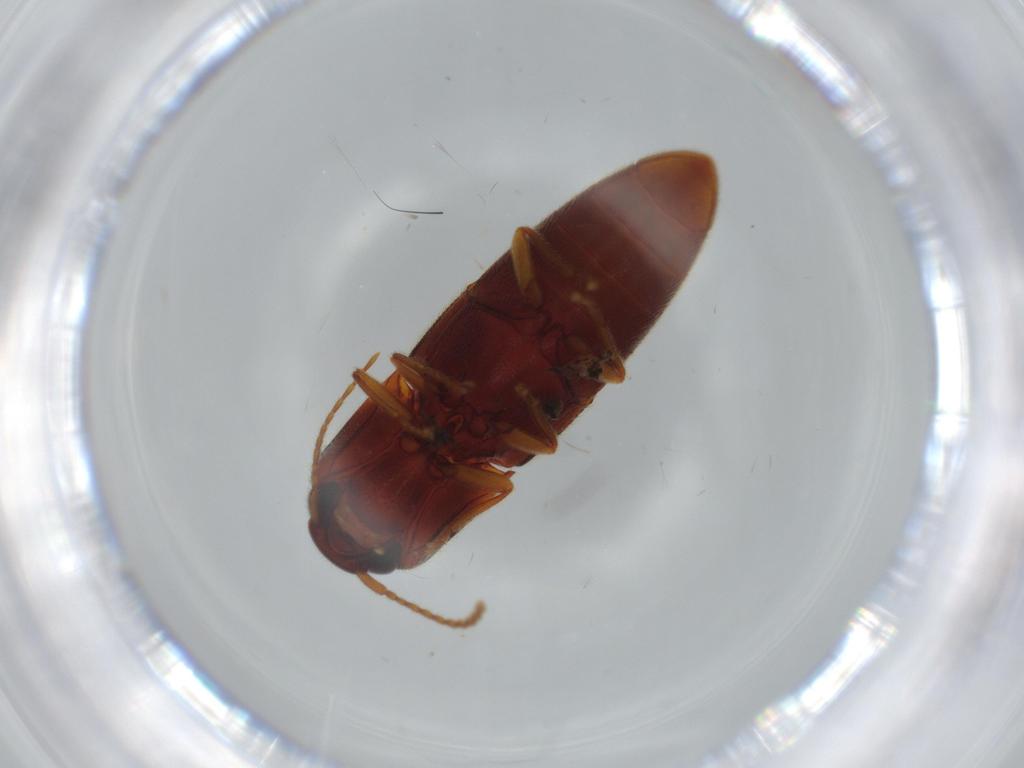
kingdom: Animalia
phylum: Arthropoda
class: Insecta
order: Coleoptera
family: Elateridae
